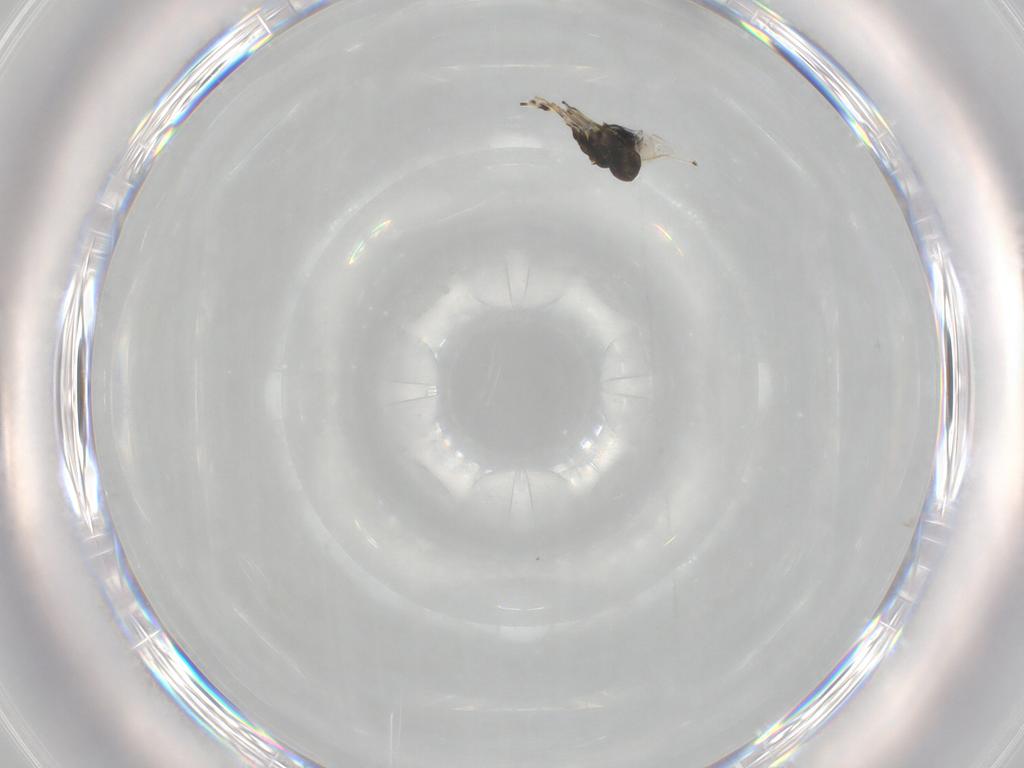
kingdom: Animalia
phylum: Arthropoda
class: Insecta
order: Hymenoptera
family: Eulophidae
